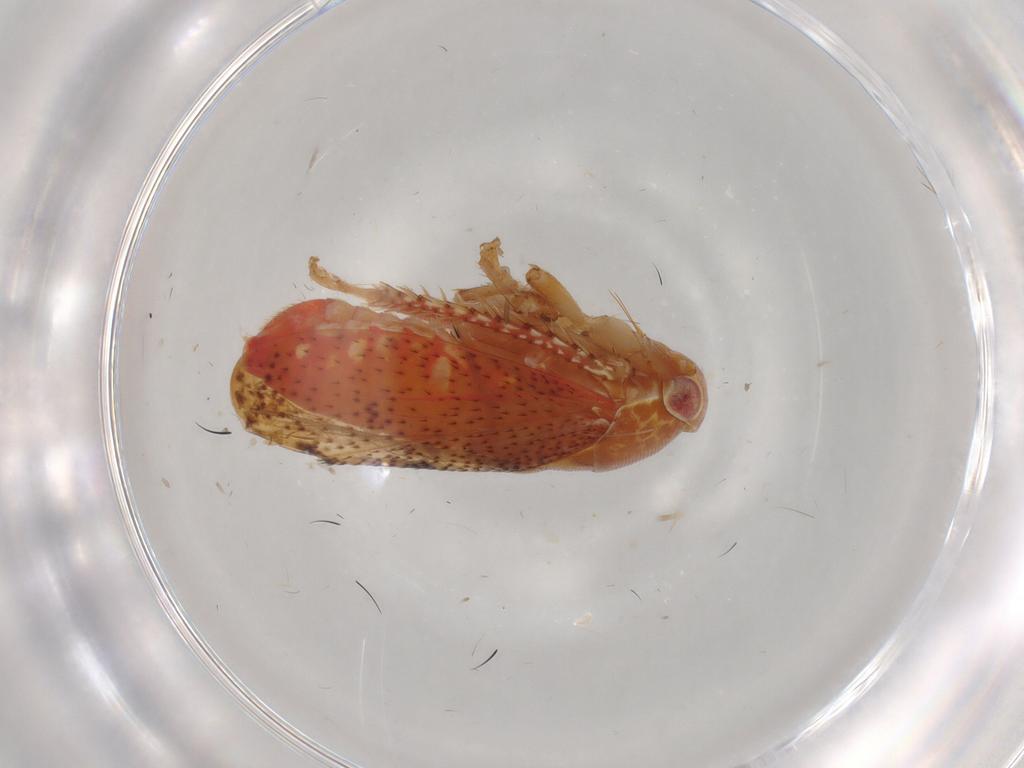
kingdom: Animalia
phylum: Arthropoda
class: Insecta
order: Hemiptera
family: Cicadellidae
